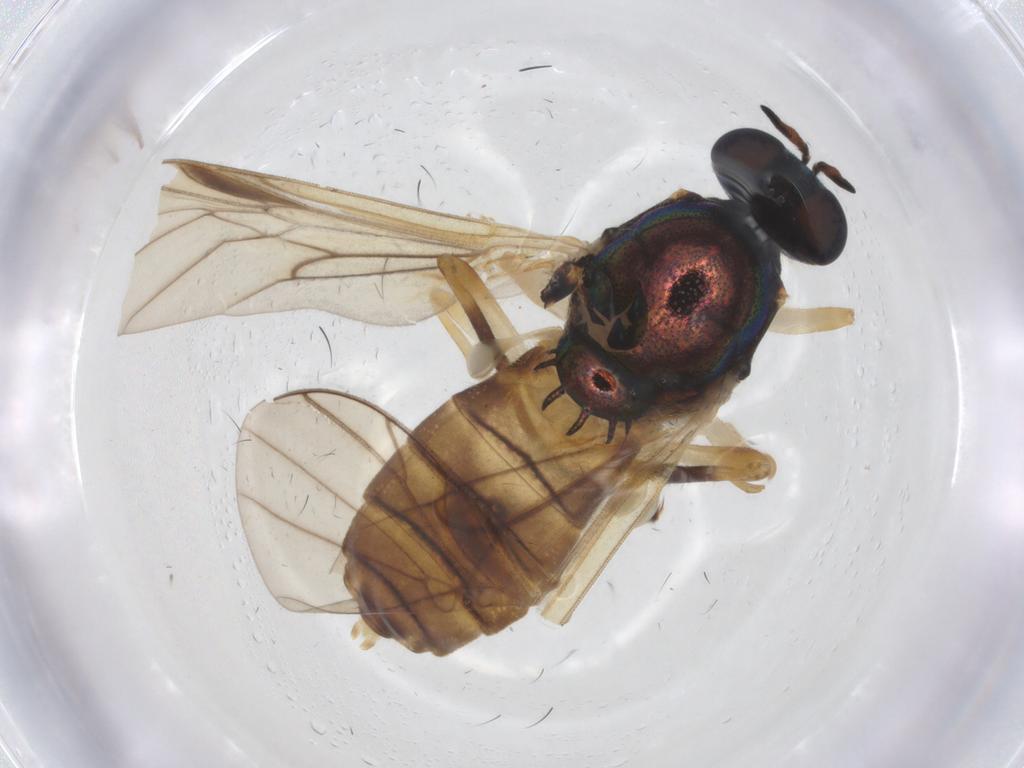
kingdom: Animalia
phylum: Arthropoda
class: Insecta
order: Diptera
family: Stratiomyidae
